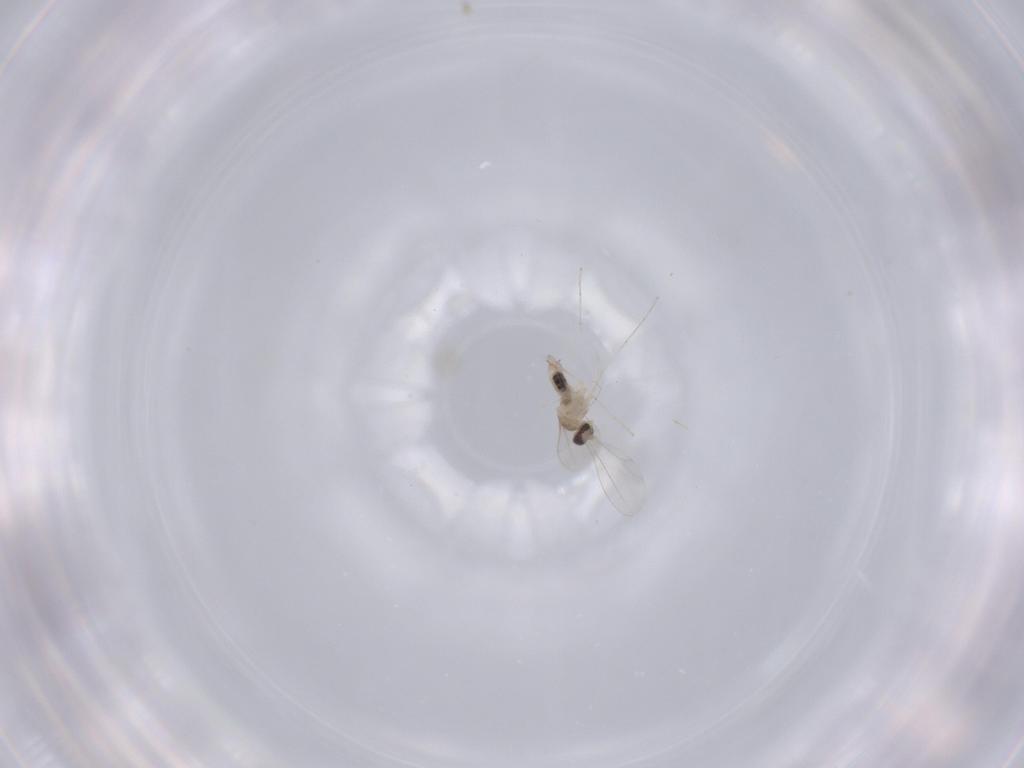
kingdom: Animalia
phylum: Arthropoda
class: Insecta
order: Diptera
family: Cecidomyiidae
